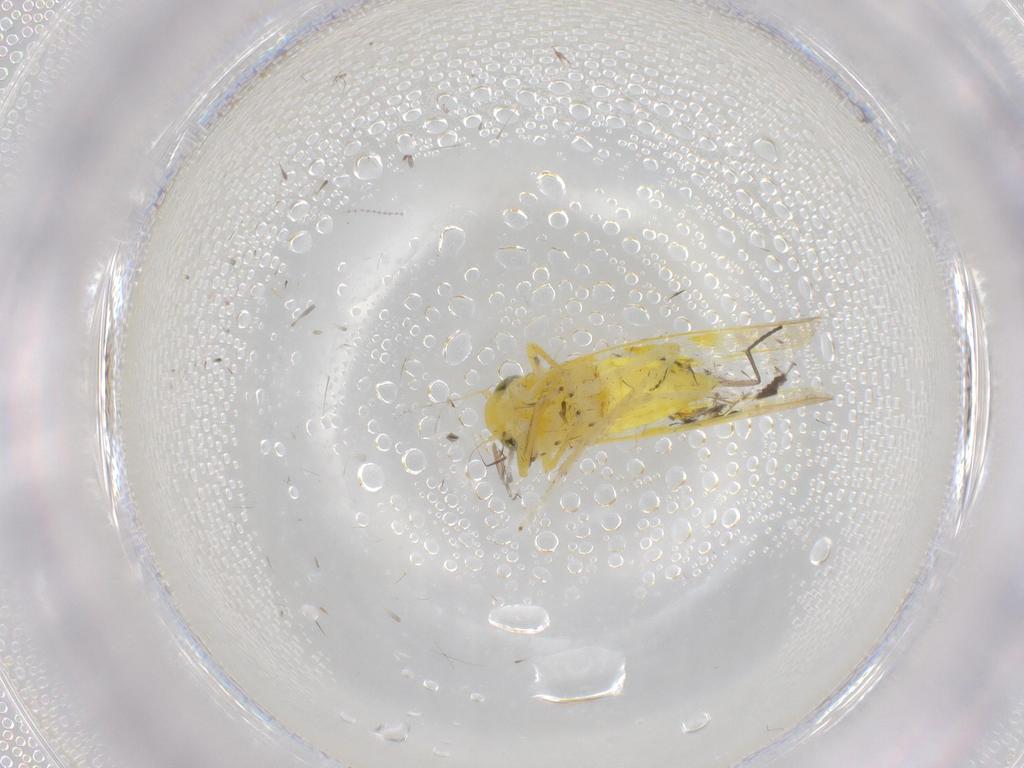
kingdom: Animalia
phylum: Arthropoda
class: Insecta
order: Hemiptera
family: Cicadellidae
